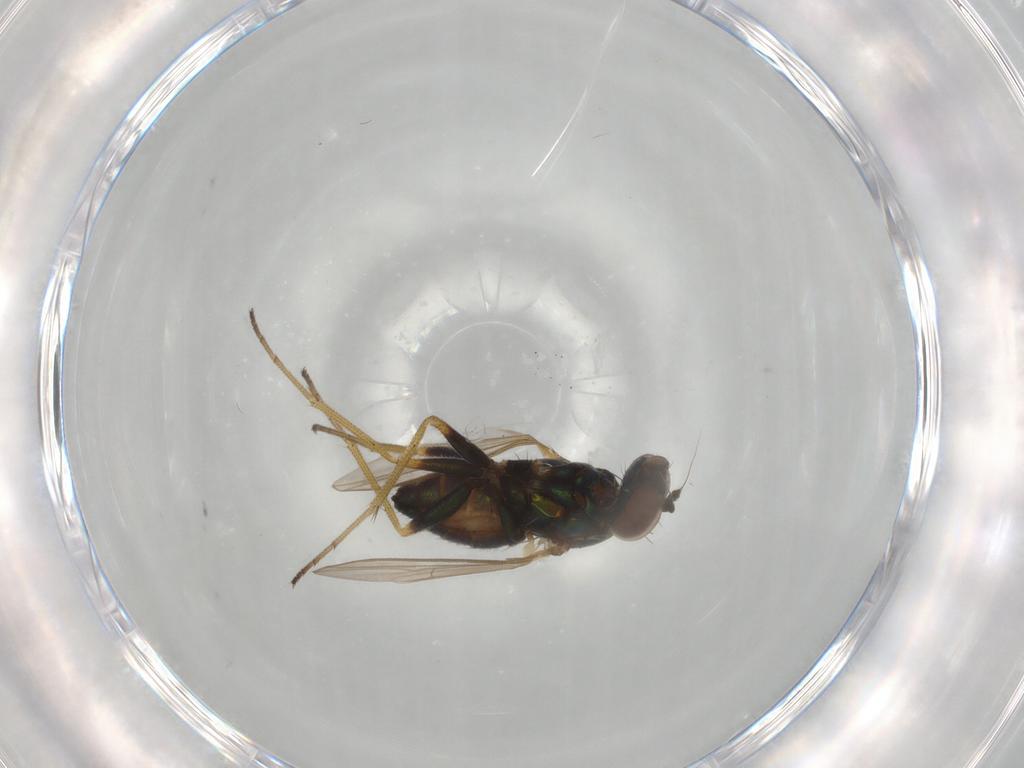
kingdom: Animalia
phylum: Arthropoda
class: Insecta
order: Diptera
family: Dolichopodidae
